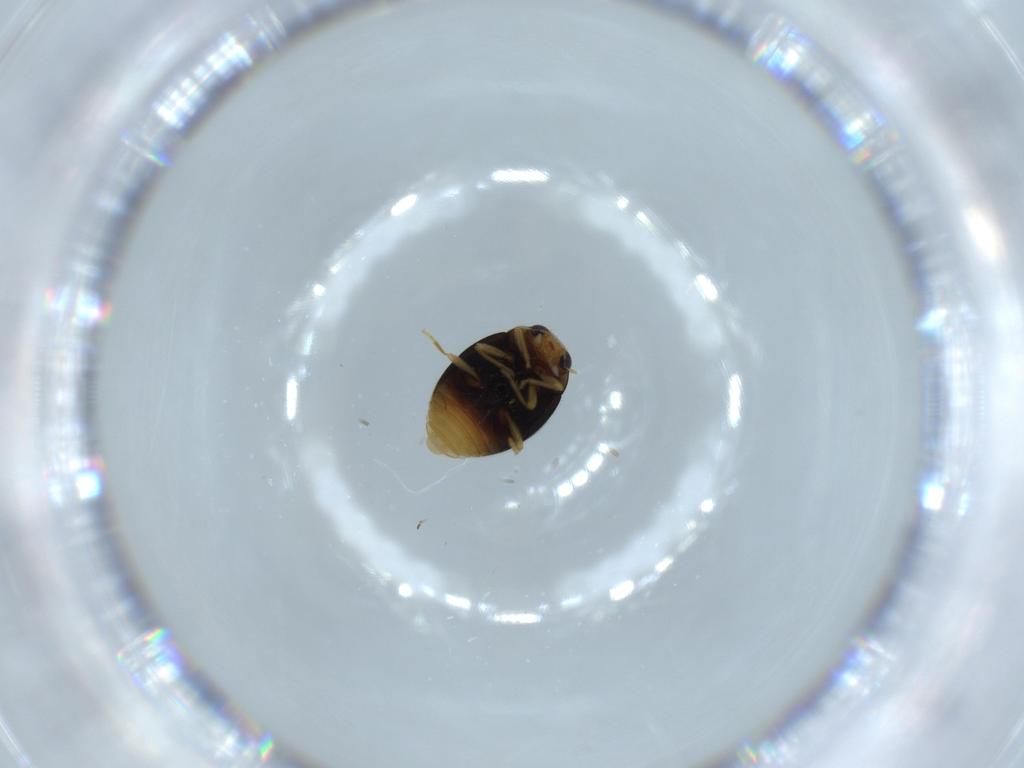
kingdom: Animalia
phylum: Arthropoda
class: Insecta
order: Coleoptera
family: Coccinellidae
